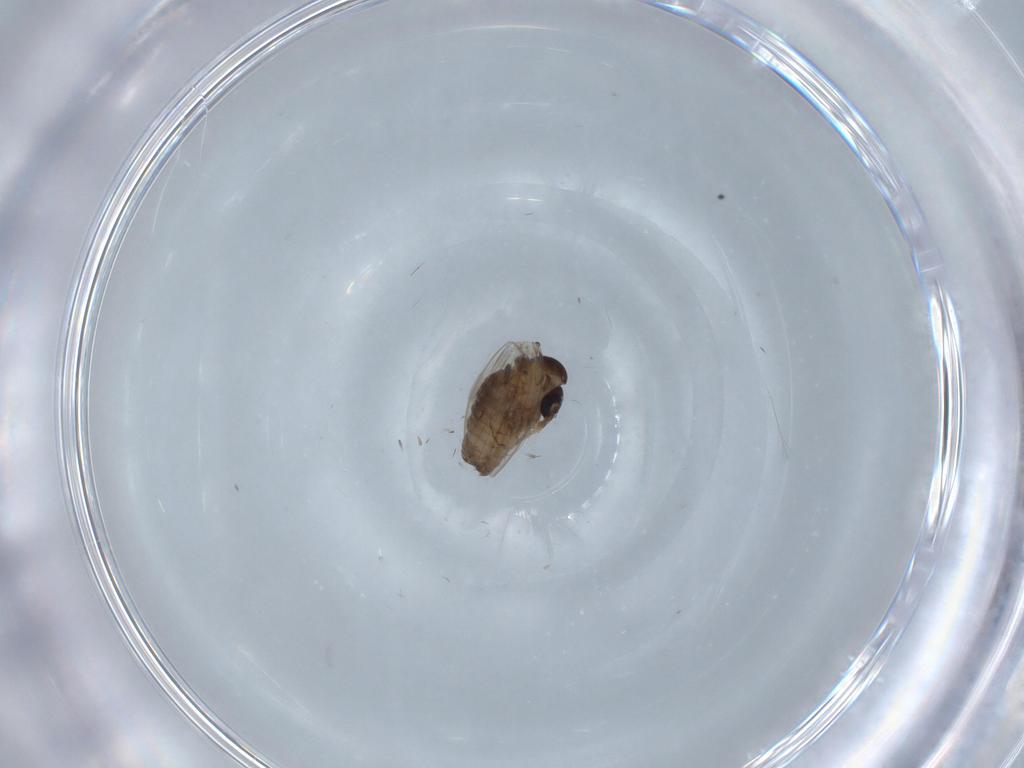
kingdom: Animalia
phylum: Arthropoda
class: Insecta
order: Diptera
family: Psychodidae
